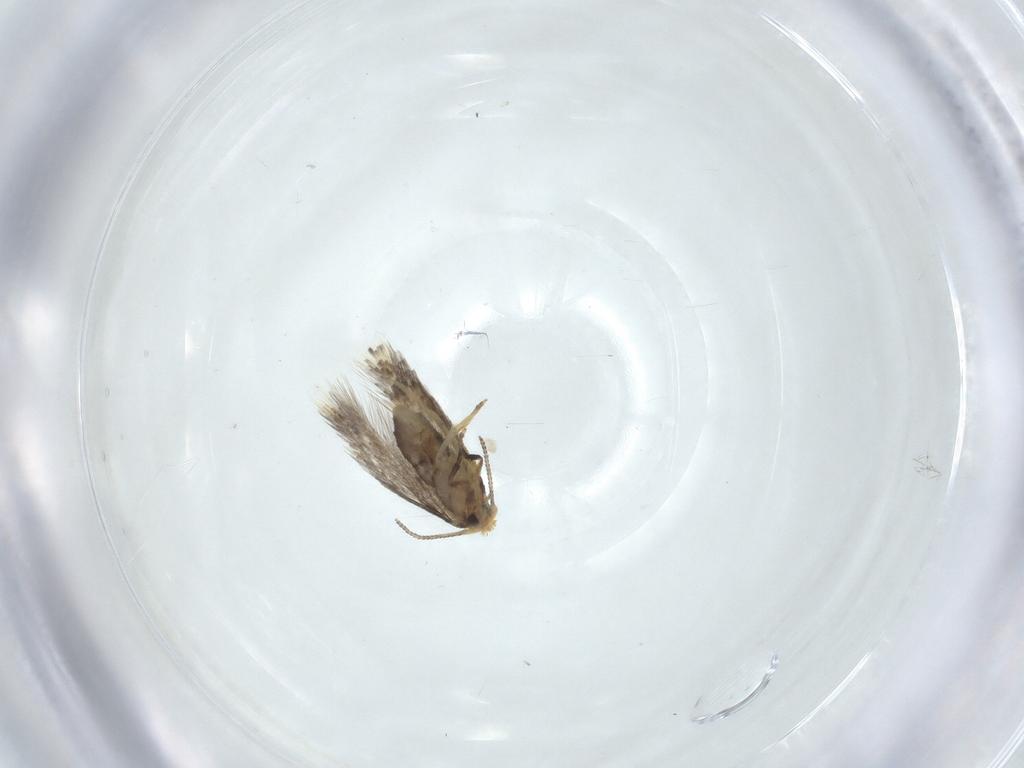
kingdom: Animalia
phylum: Arthropoda
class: Insecta
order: Lepidoptera
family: Nepticulidae
